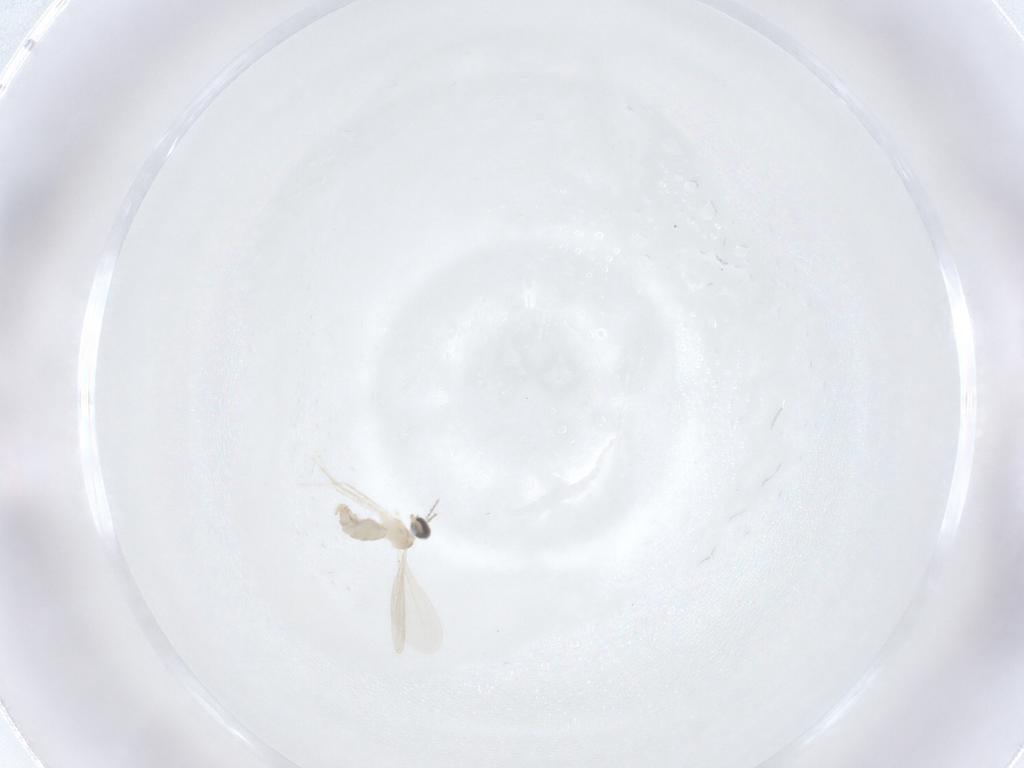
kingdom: Animalia
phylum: Arthropoda
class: Insecta
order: Diptera
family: Cecidomyiidae
